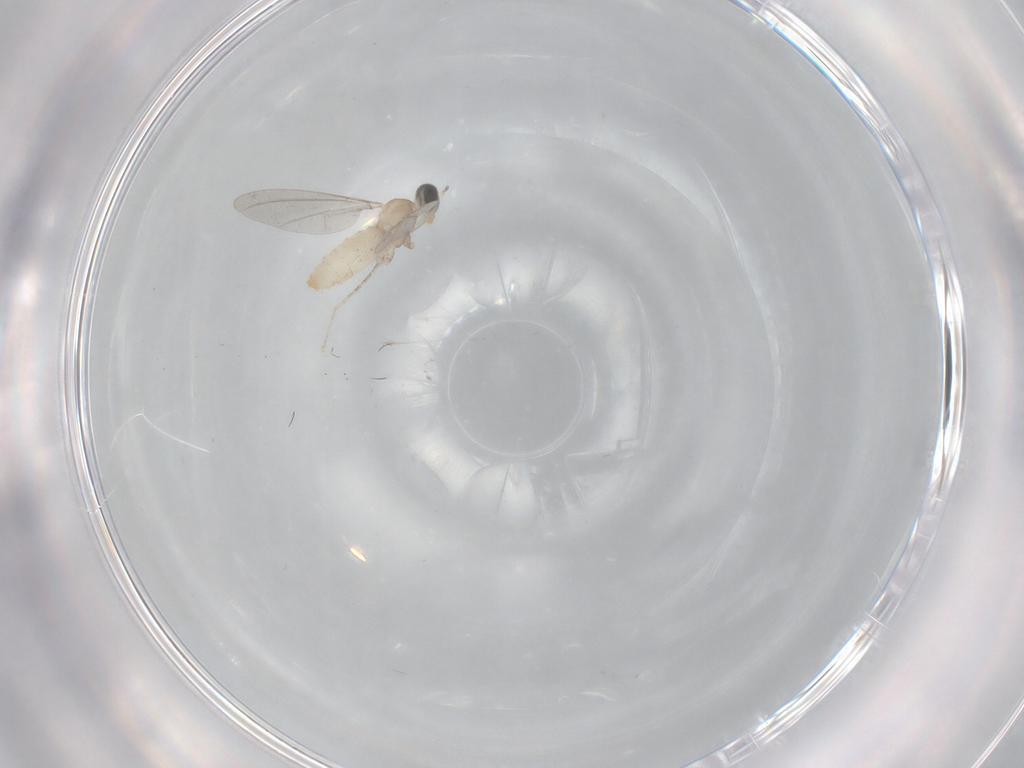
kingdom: Animalia
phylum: Arthropoda
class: Insecta
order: Diptera
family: Cecidomyiidae
